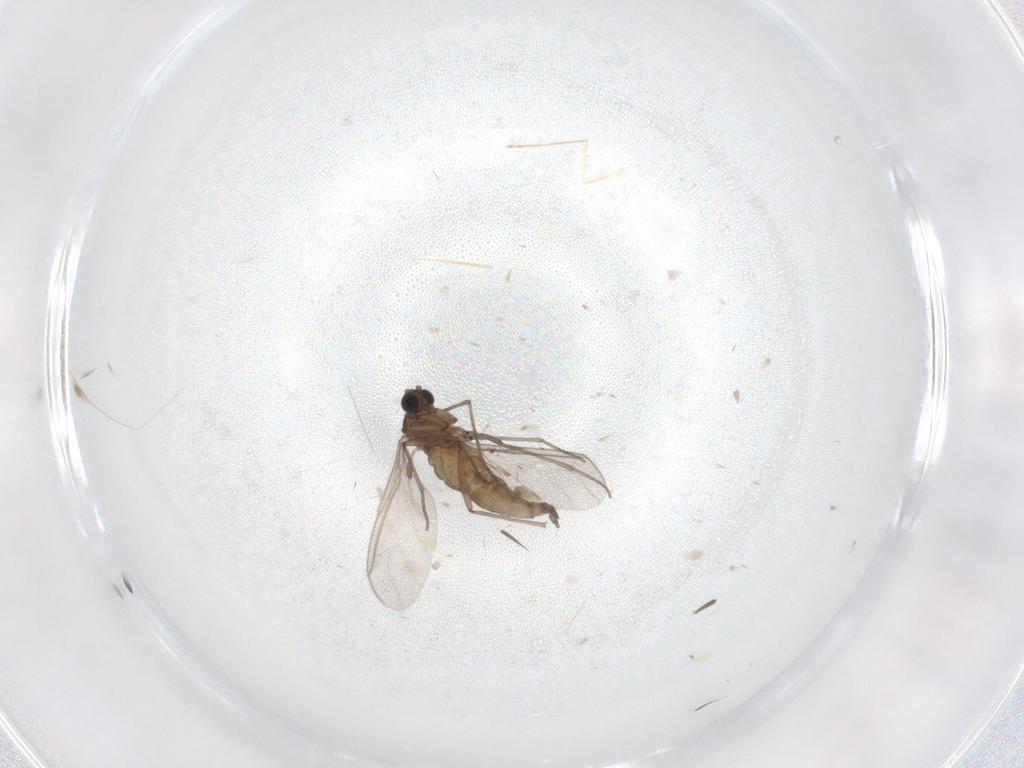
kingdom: Animalia
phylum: Arthropoda
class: Insecta
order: Diptera
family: Sciaridae
